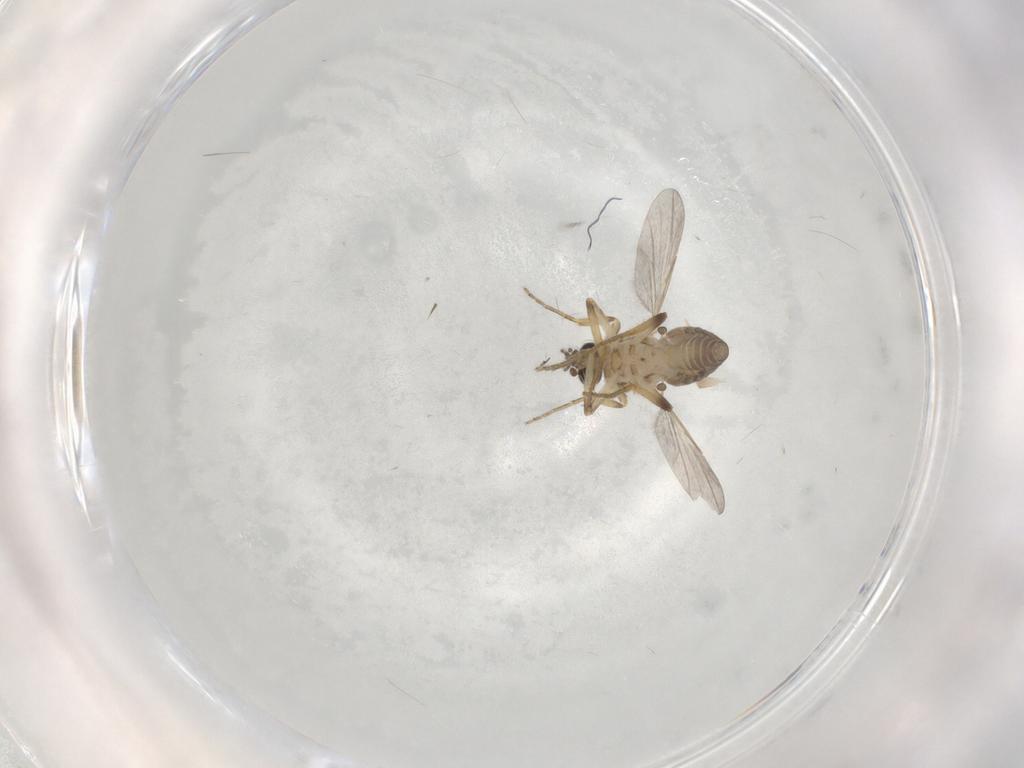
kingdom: Animalia
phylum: Arthropoda
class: Insecta
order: Diptera
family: Ceratopogonidae
